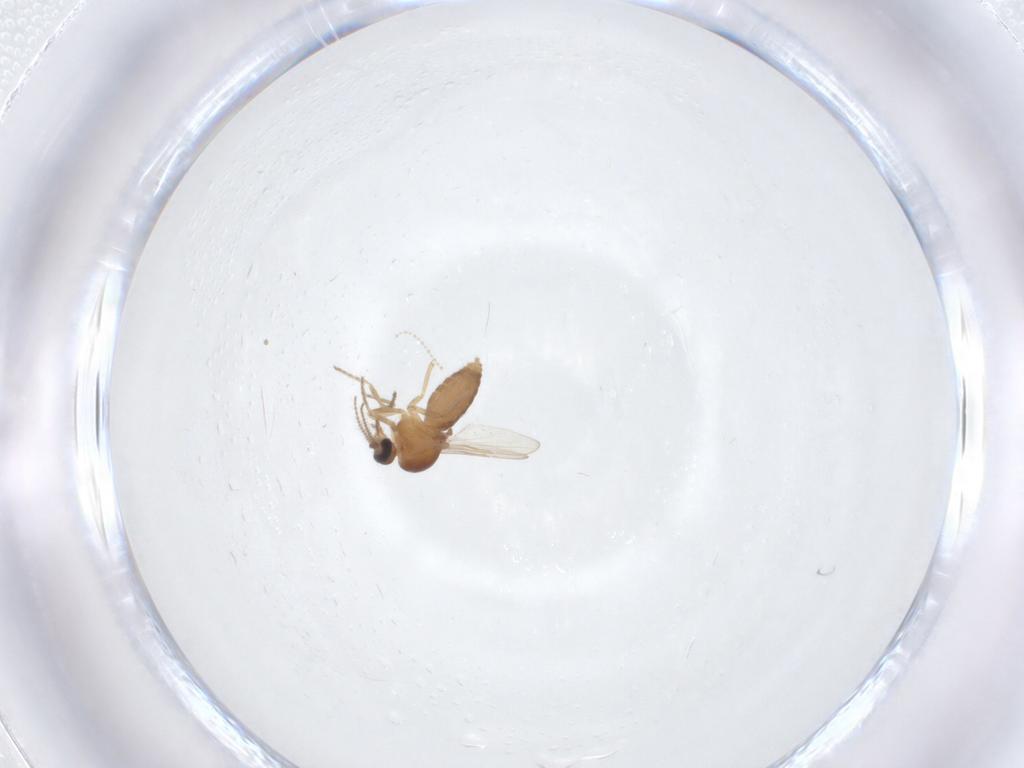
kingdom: Animalia
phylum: Arthropoda
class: Insecta
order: Diptera
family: Ceratopogonidae
